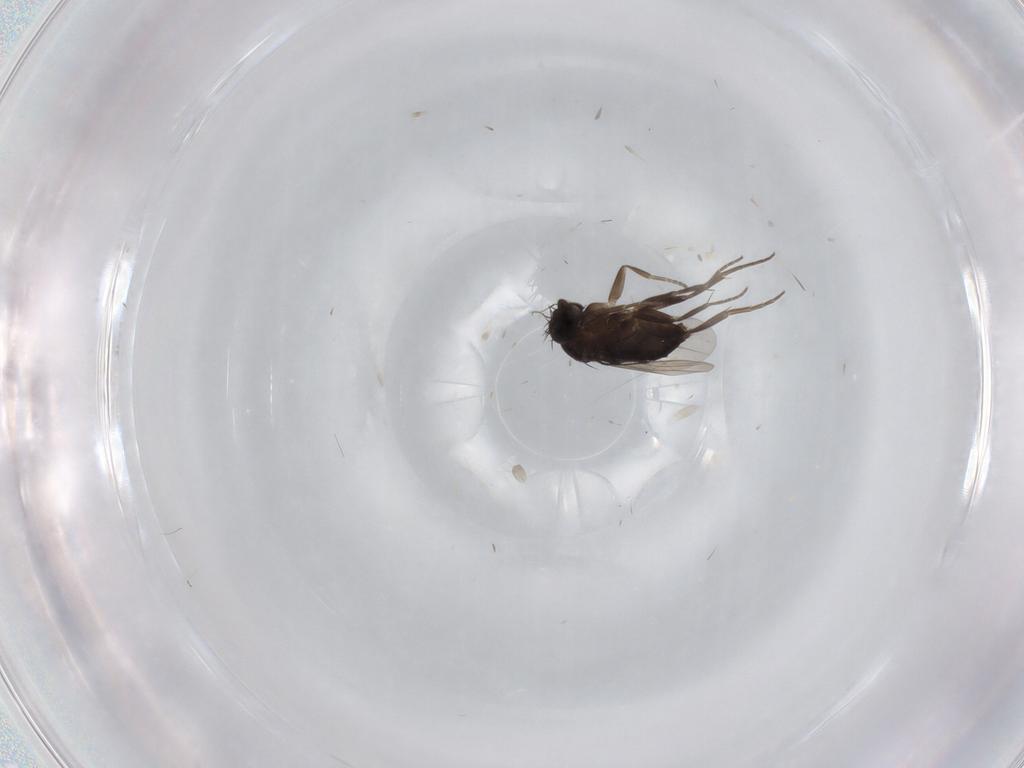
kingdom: Animalia
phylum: Arthropoda
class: Insecta
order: Diptera
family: Phoridae
